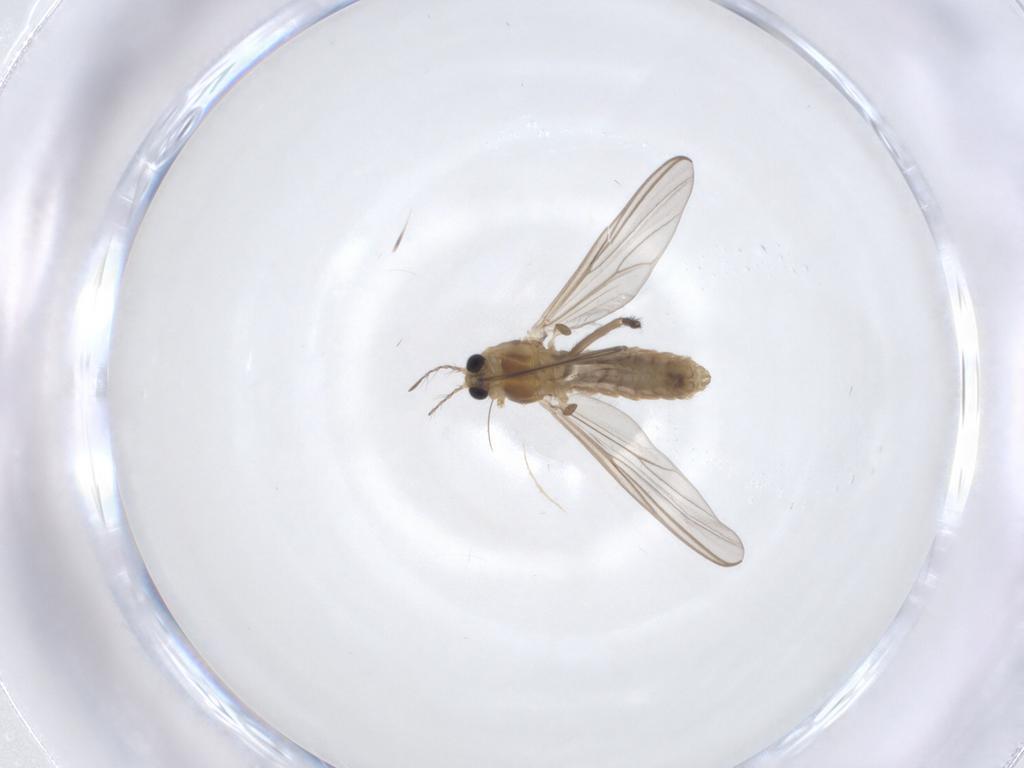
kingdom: Animalia
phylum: Arthropoda
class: Insecta
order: Diptera
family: Chironomidae
